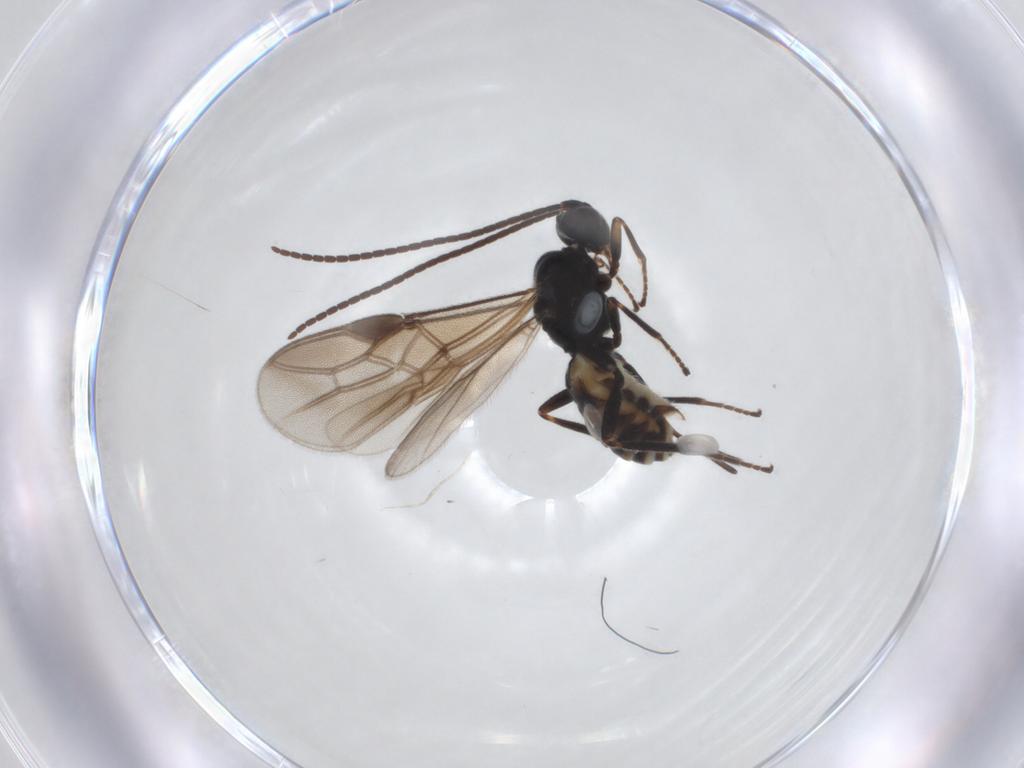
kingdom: Animalia
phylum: Arthropoda
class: Insecta
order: Hymenoptera
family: Braconidae
